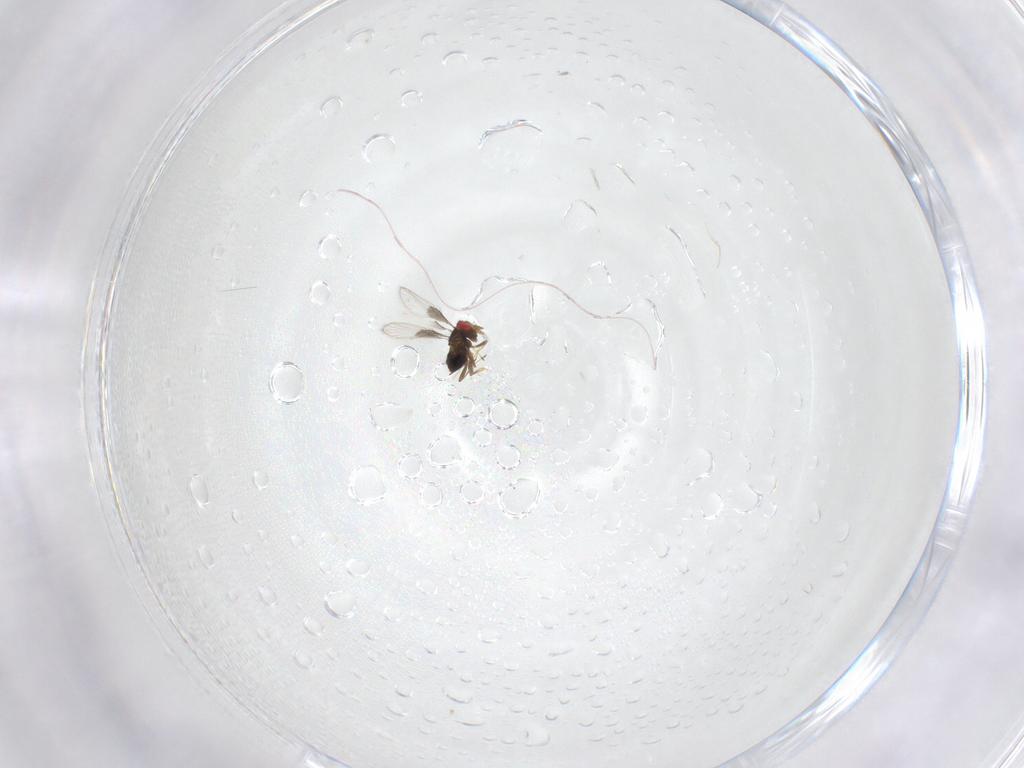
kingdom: Animalia
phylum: Arthropoda
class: Insecta
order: Hymenoptera
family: Trichogrammatidae
